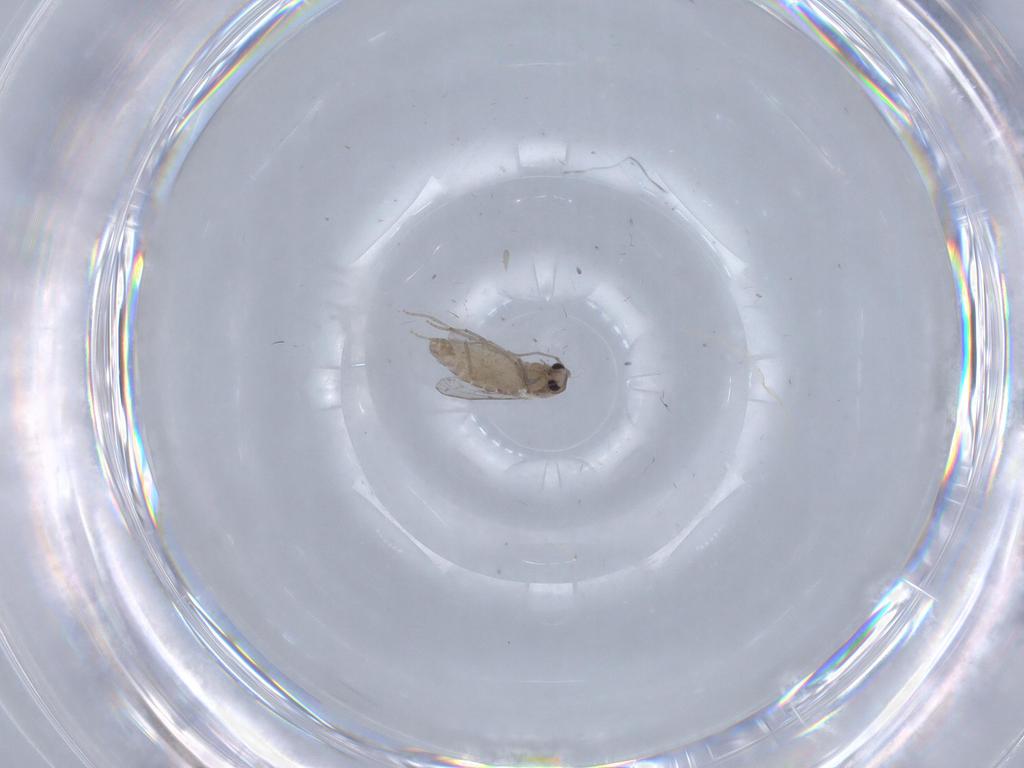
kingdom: Animalia
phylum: Arthropoda
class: Insecta
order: Diptera
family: Chironomidae
